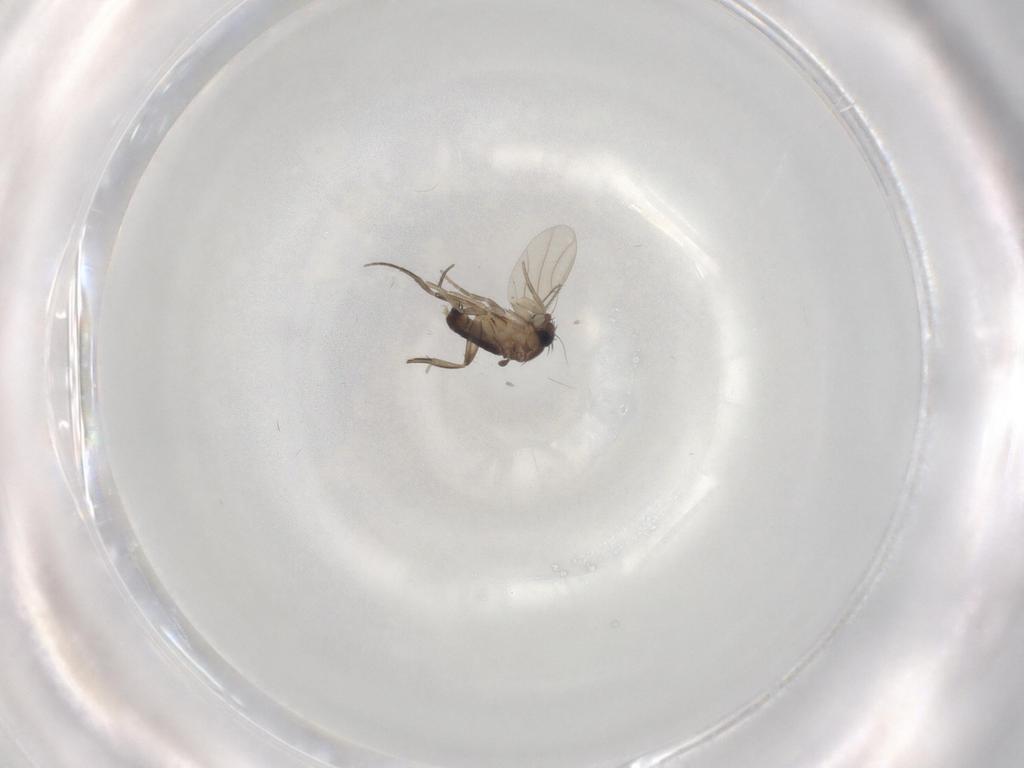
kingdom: Animalia
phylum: Arthropoda
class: Insecta
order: Diptera
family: Phoridae
